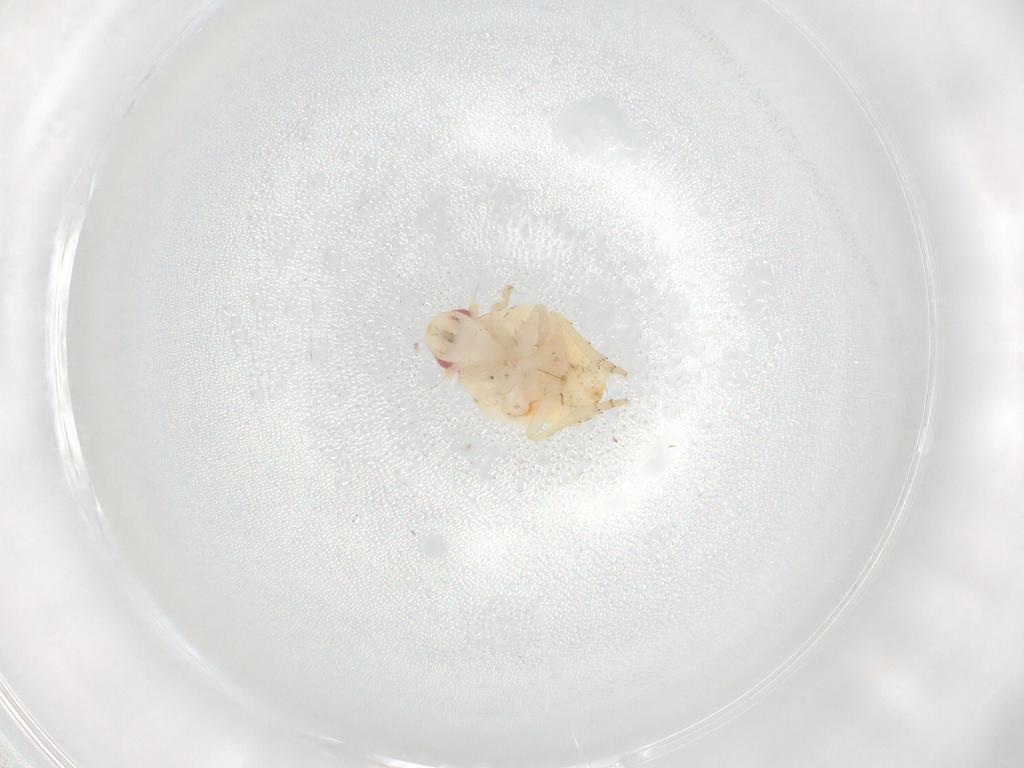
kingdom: Animalia
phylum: Arthropoda
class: Insecta
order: Hemiptera
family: Flatidae
